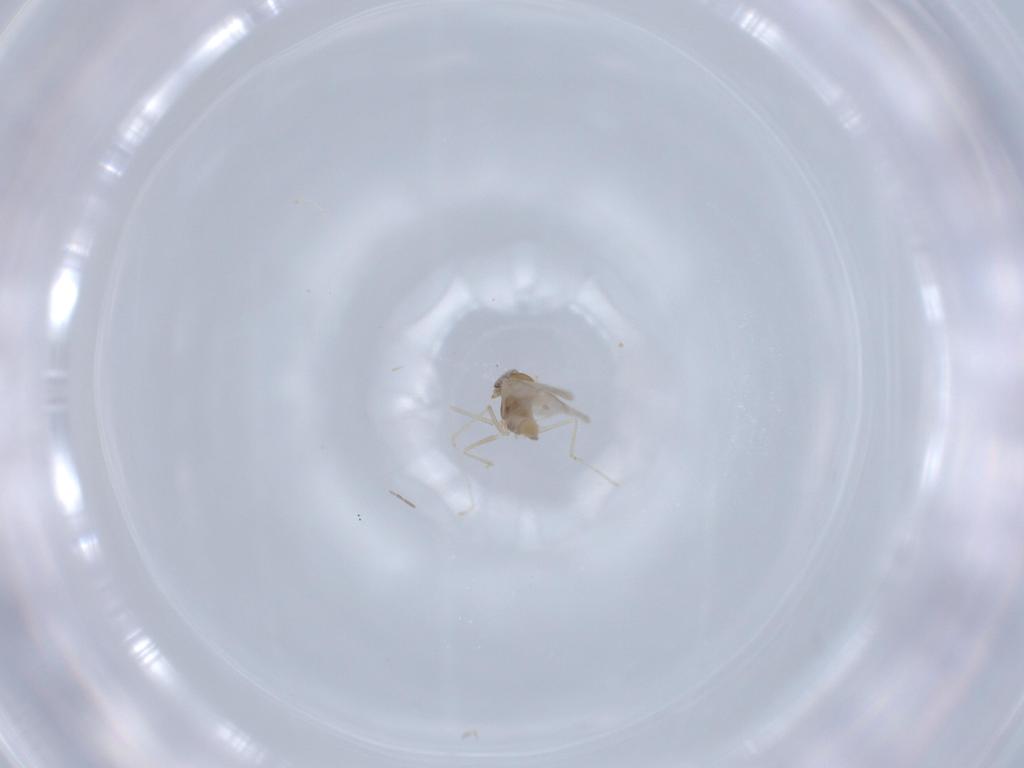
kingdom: Animalia
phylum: Arthropoda
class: Insecta
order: Diptera
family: Cecidomyiidae
